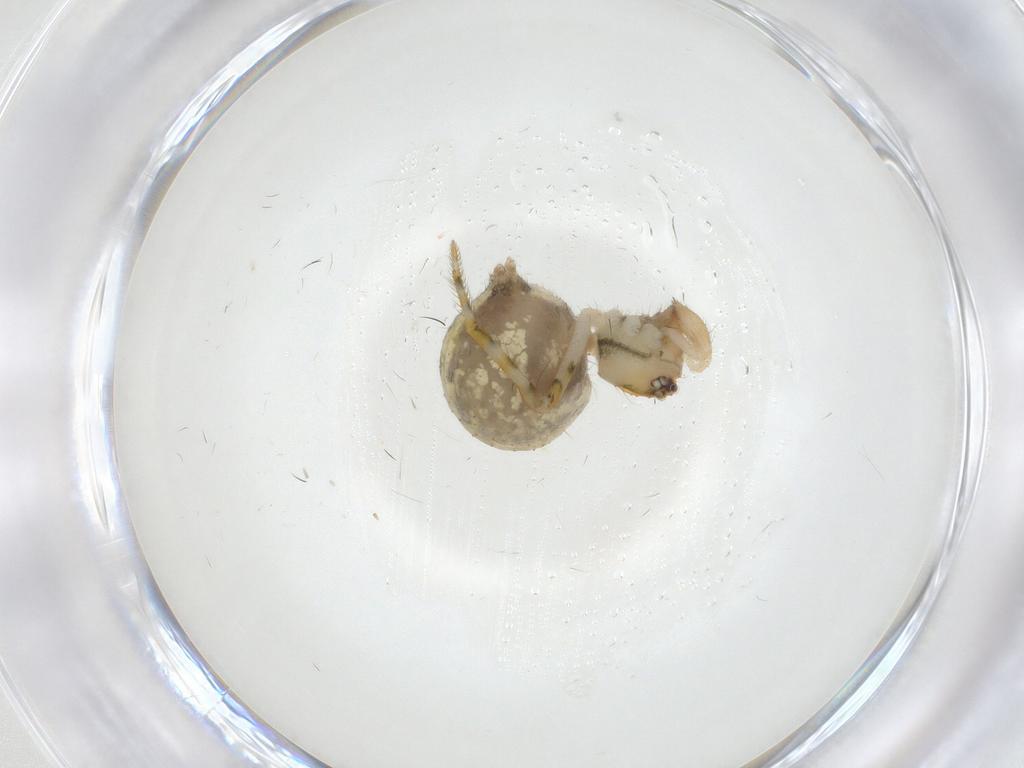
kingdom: Animalia
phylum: Arthropoda
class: Arachnida
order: Araneae
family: Theridiidae
